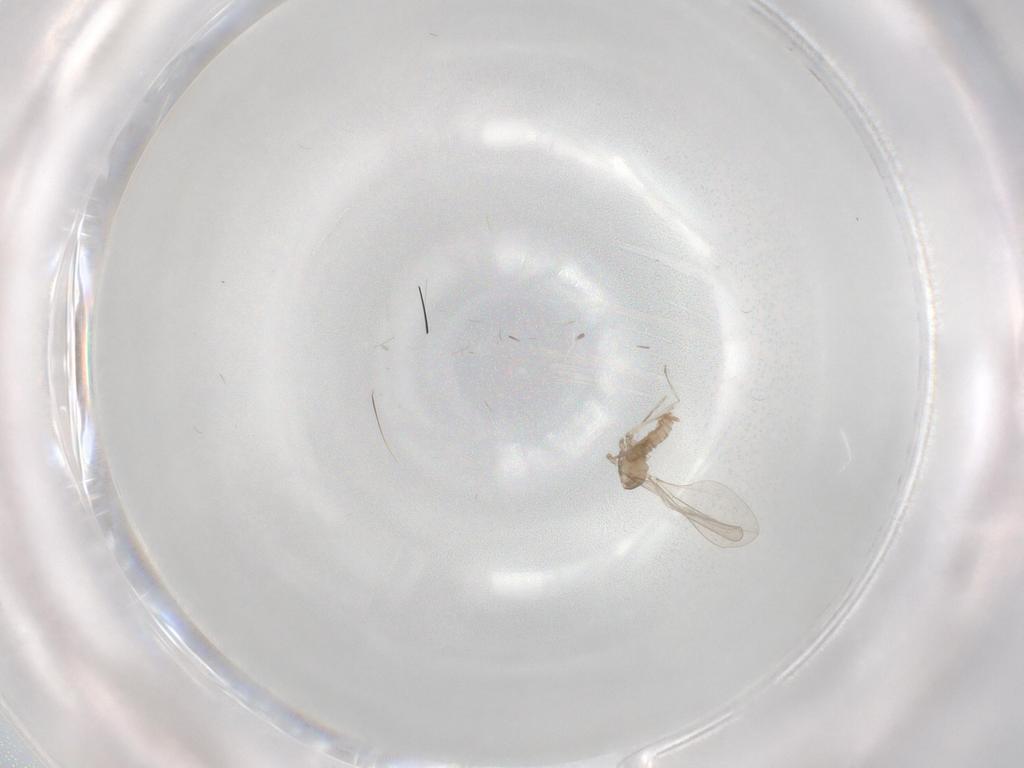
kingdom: Animalia
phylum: Arthropoda
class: Insecta
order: Diptera
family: Cecidomyiidae
